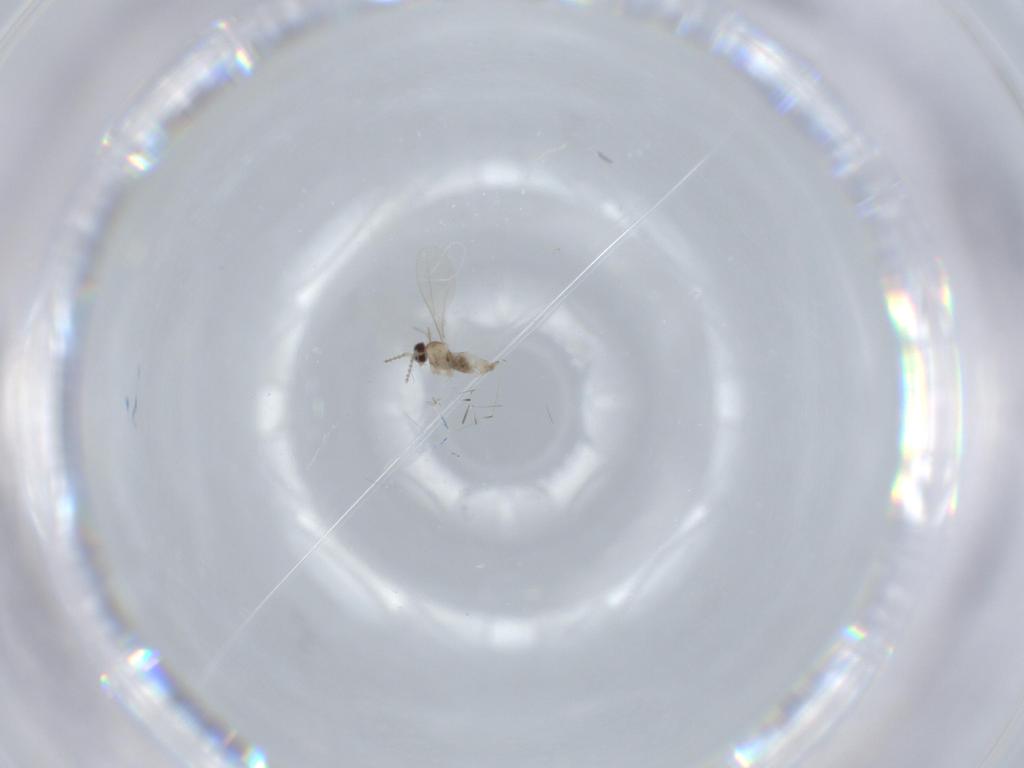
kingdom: Animalia
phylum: Arthropoda
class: Insecta
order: Diptera
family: Cecidomyiidae
